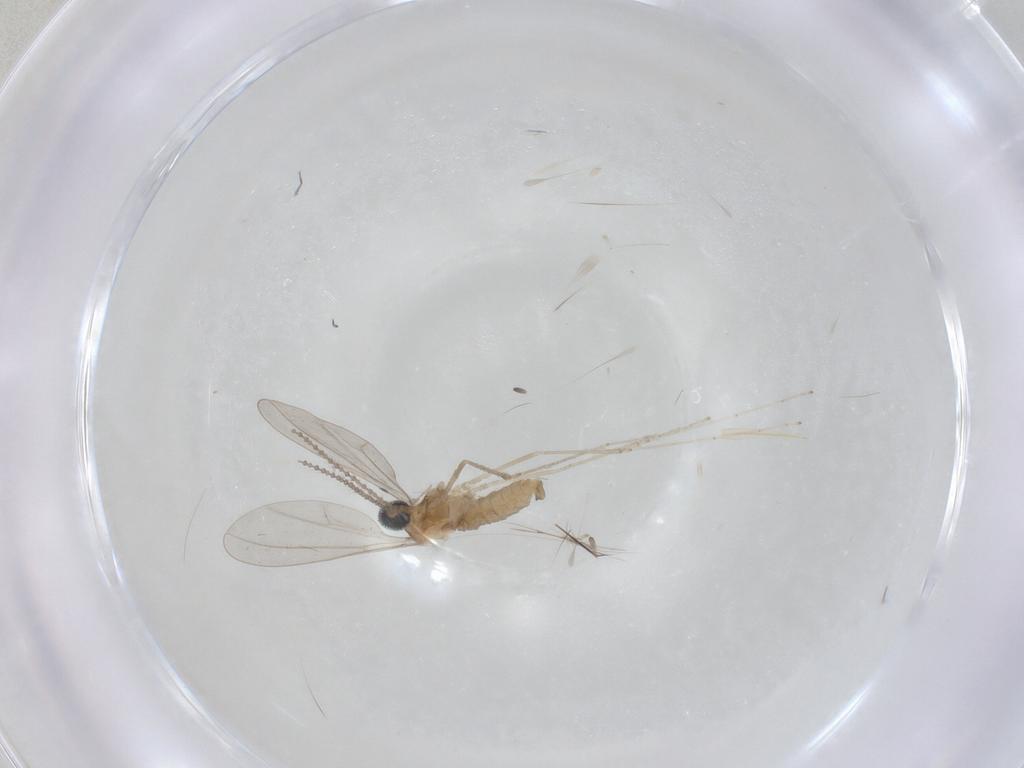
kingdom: Animalia
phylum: Arthropoda
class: Insecta
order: Diptera
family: Cecidomyiidae
